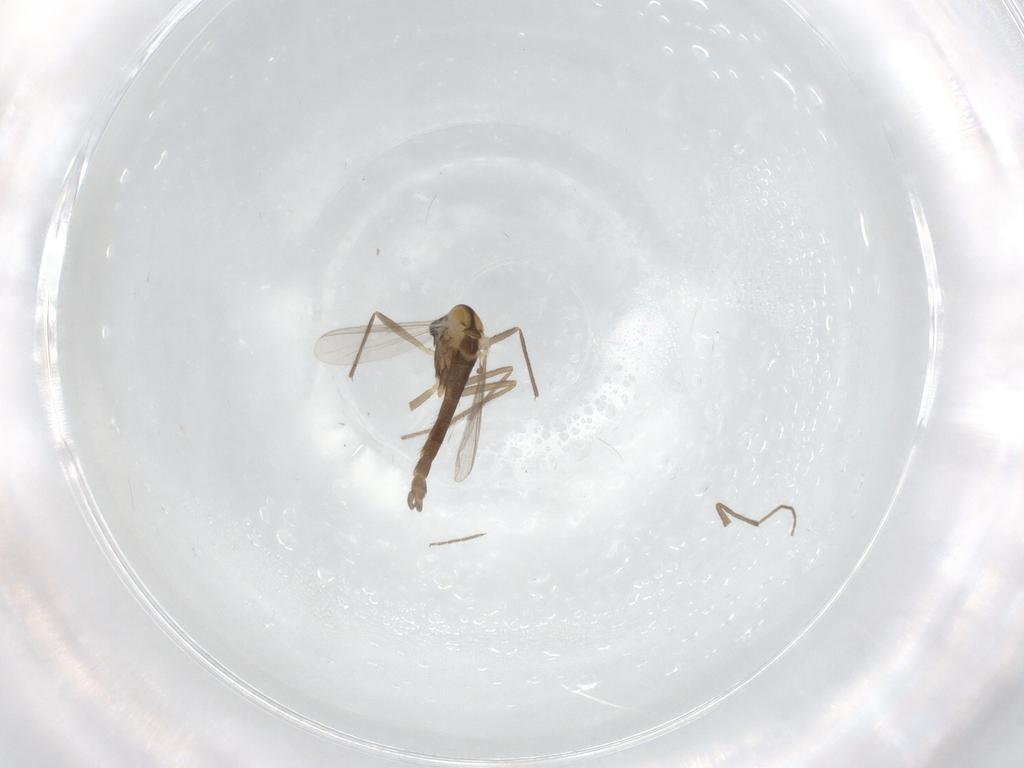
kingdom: Animalia
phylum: Arthropoda
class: Insecta
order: Diptera
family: Chironomidae
